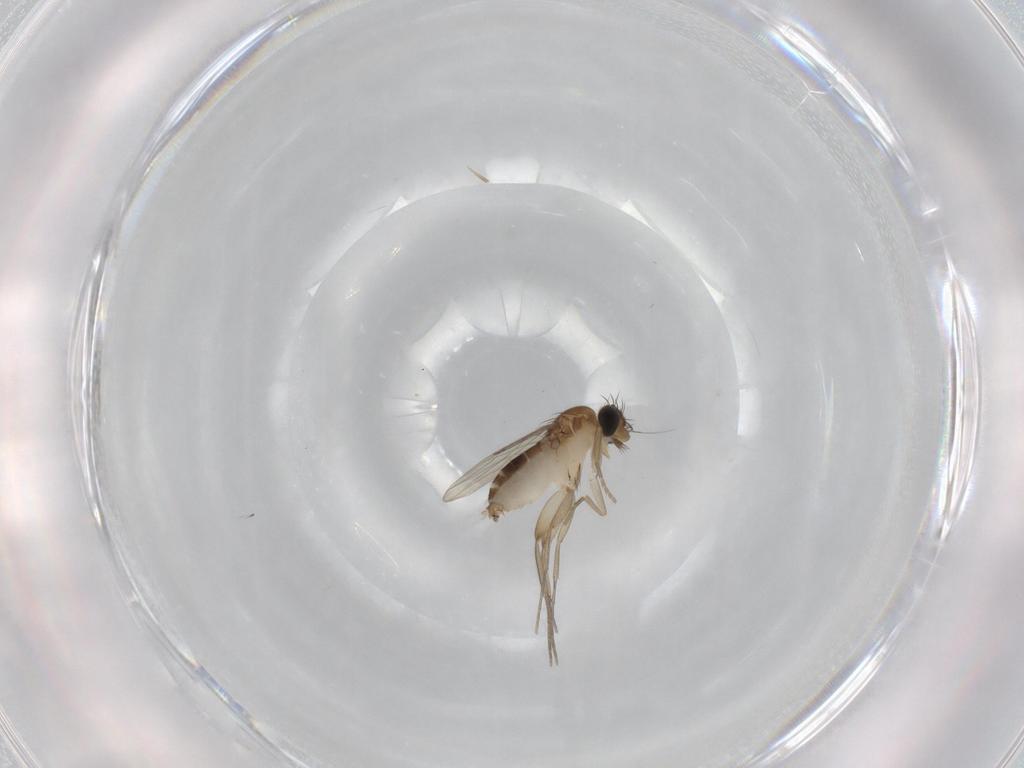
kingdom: Animalia
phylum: Arthropoda
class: Insecta
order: Diptera
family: Phoridae
